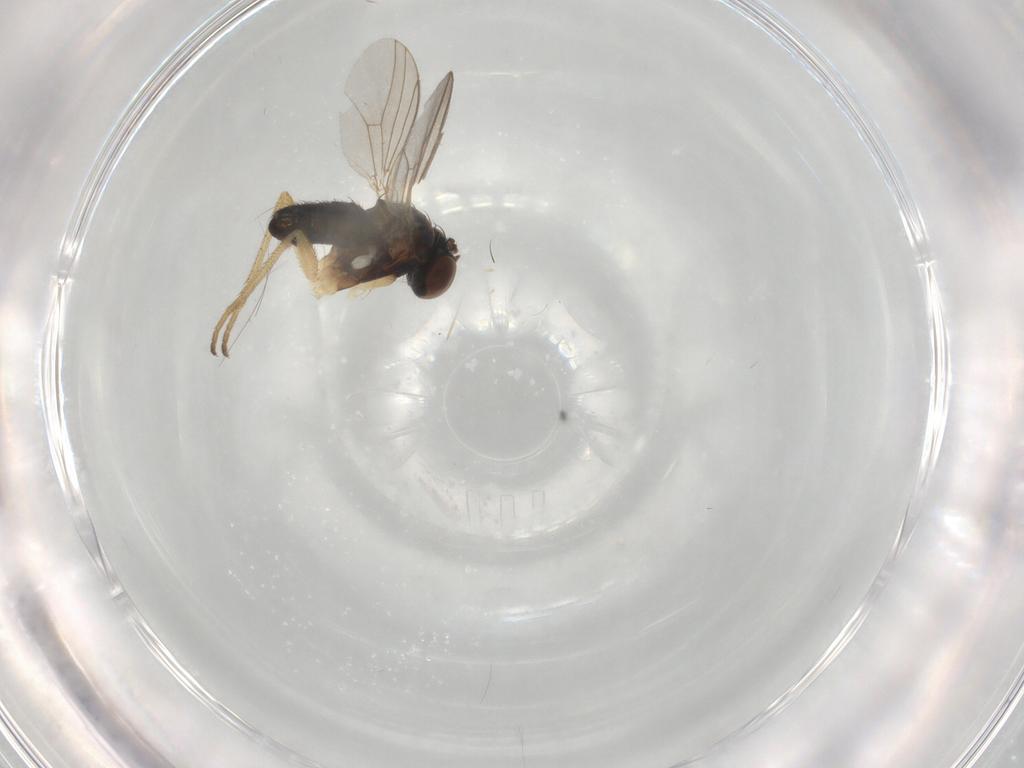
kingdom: Animalia
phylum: Arthropoda
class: Insecta
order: Diptera
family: Dolichopodidae
